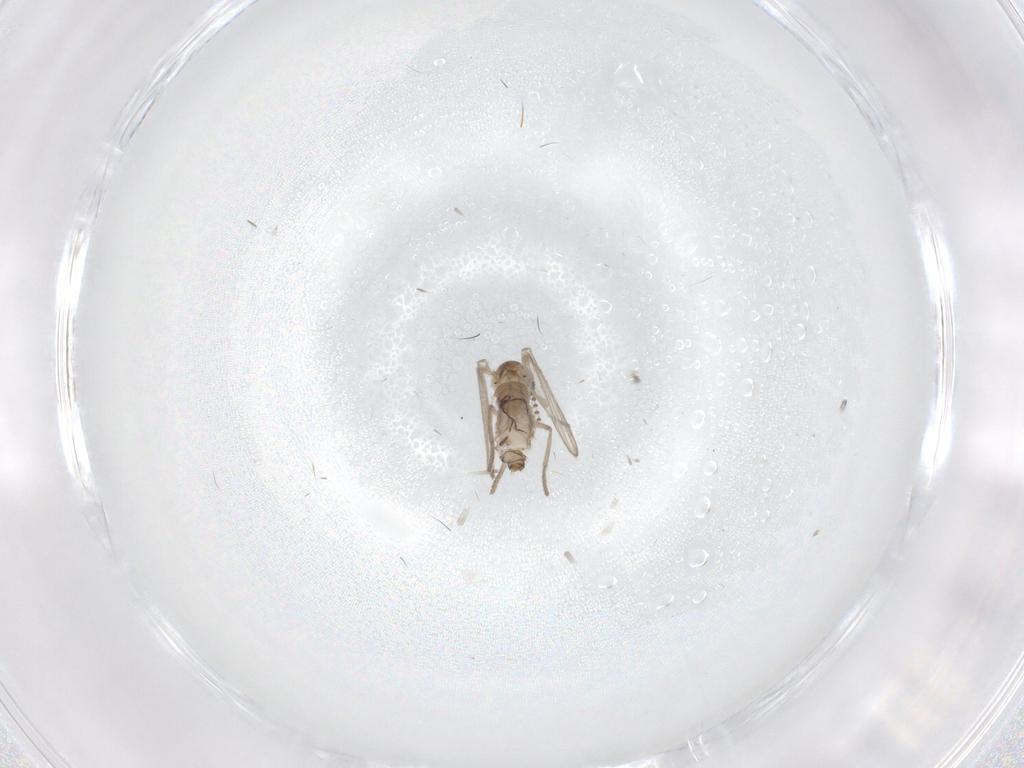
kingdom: Animalia
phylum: Arthropoda
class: Insecta
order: Diptera
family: Psychodidae
